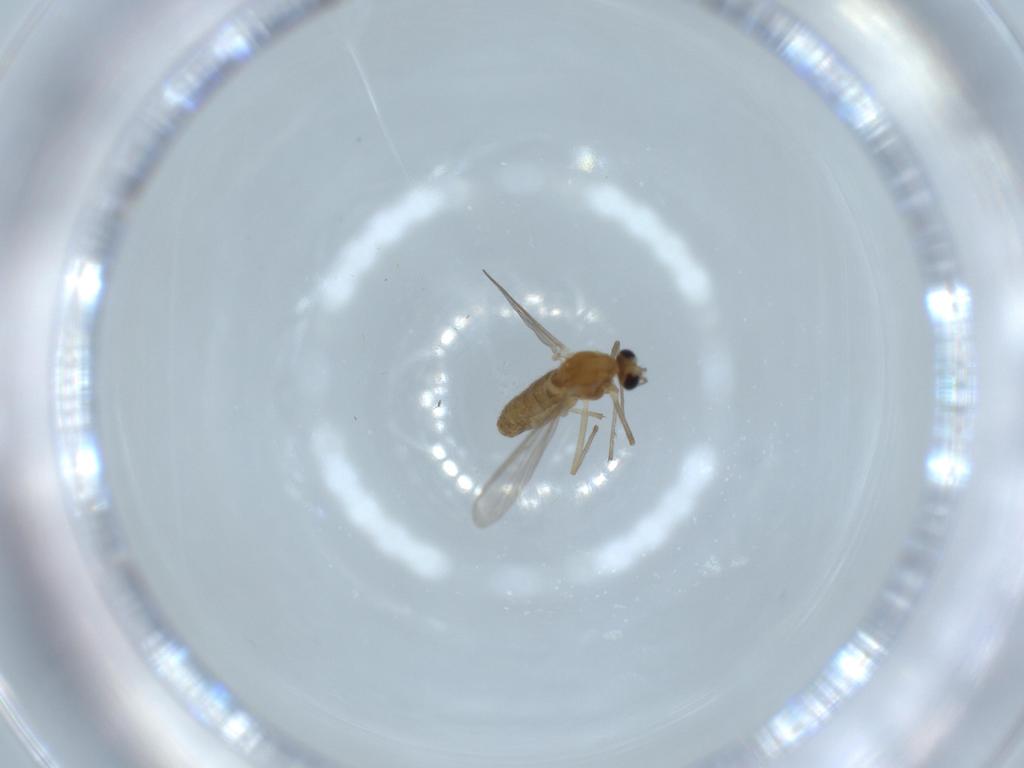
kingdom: Animalia
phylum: Arthropoda
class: Insecta
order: Diptera
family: Chironomidae
